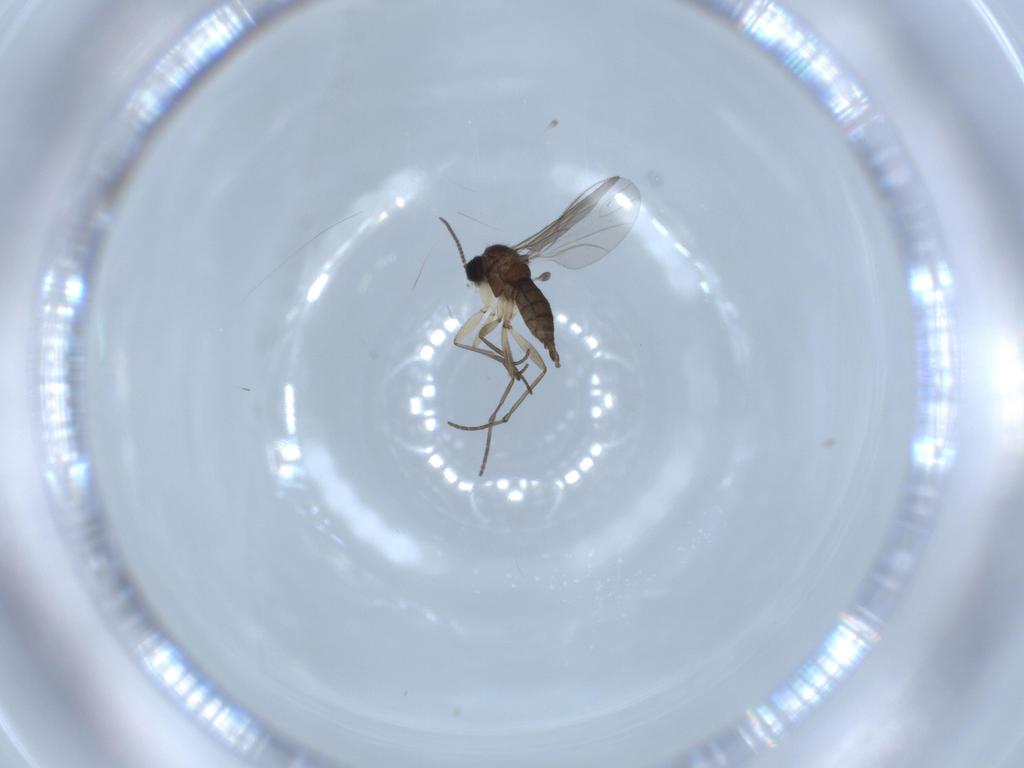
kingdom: Animalia
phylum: Arthropoda
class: Insecta
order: Diptera
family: Sciaridae
